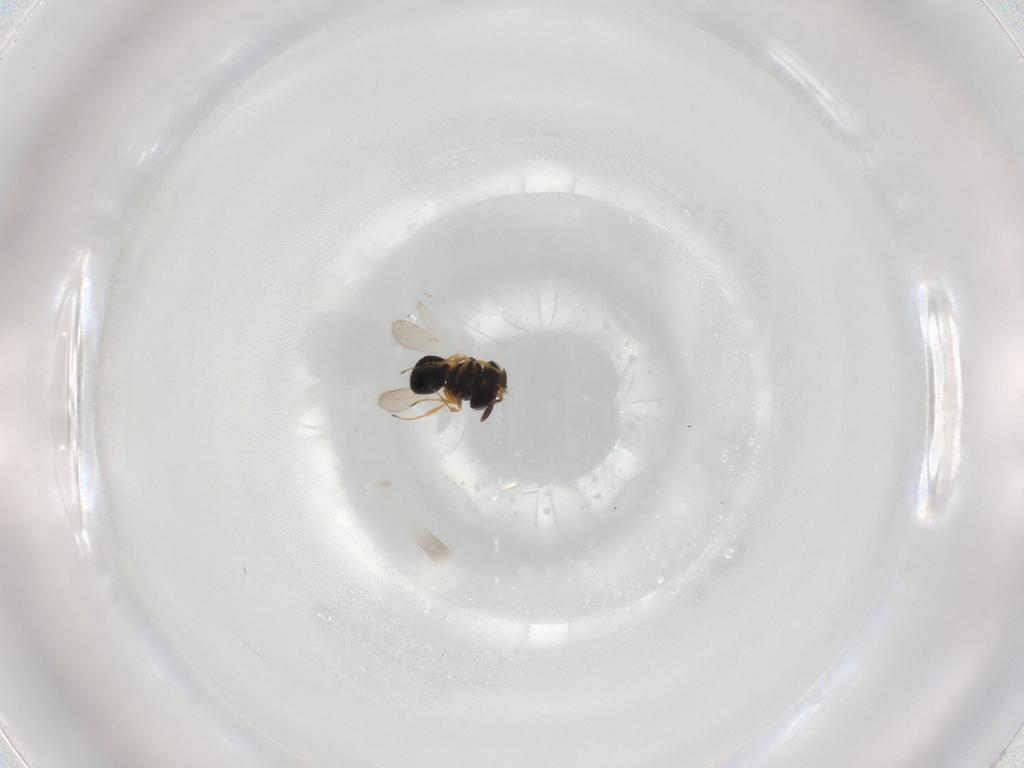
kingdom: Animalia
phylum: Arthropoda
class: Insecta
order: Hymenoptera
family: Scelionidae
